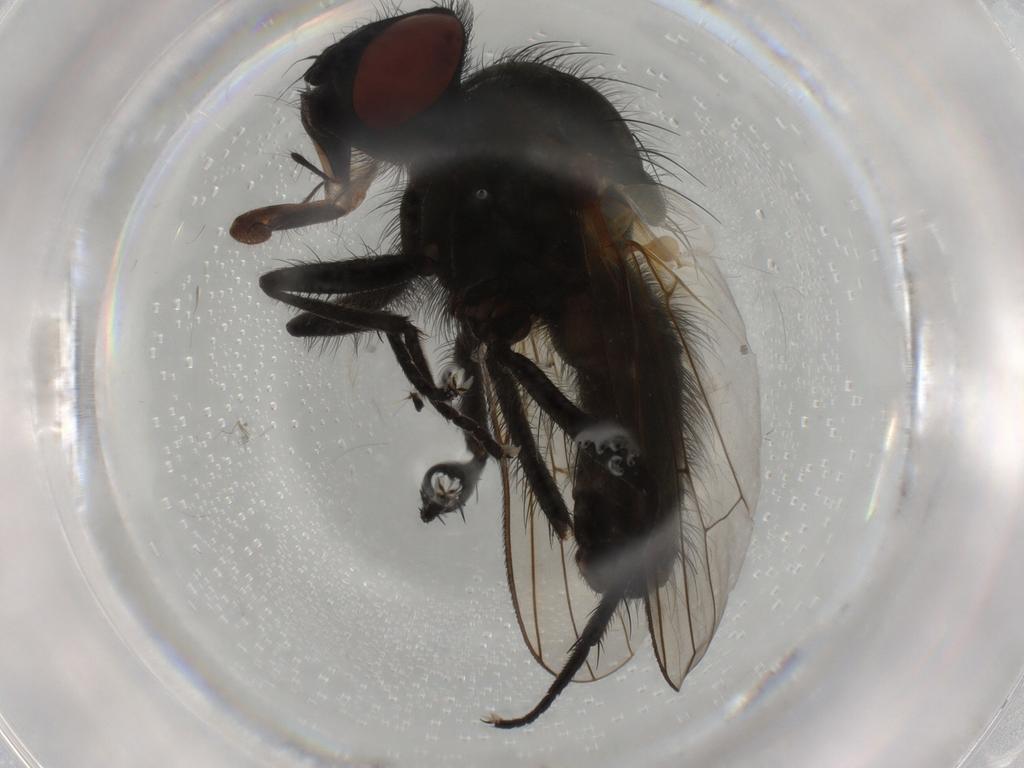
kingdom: Animalia
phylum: Arthropoda
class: Insecta
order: Diptera
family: Anthomyiidae
